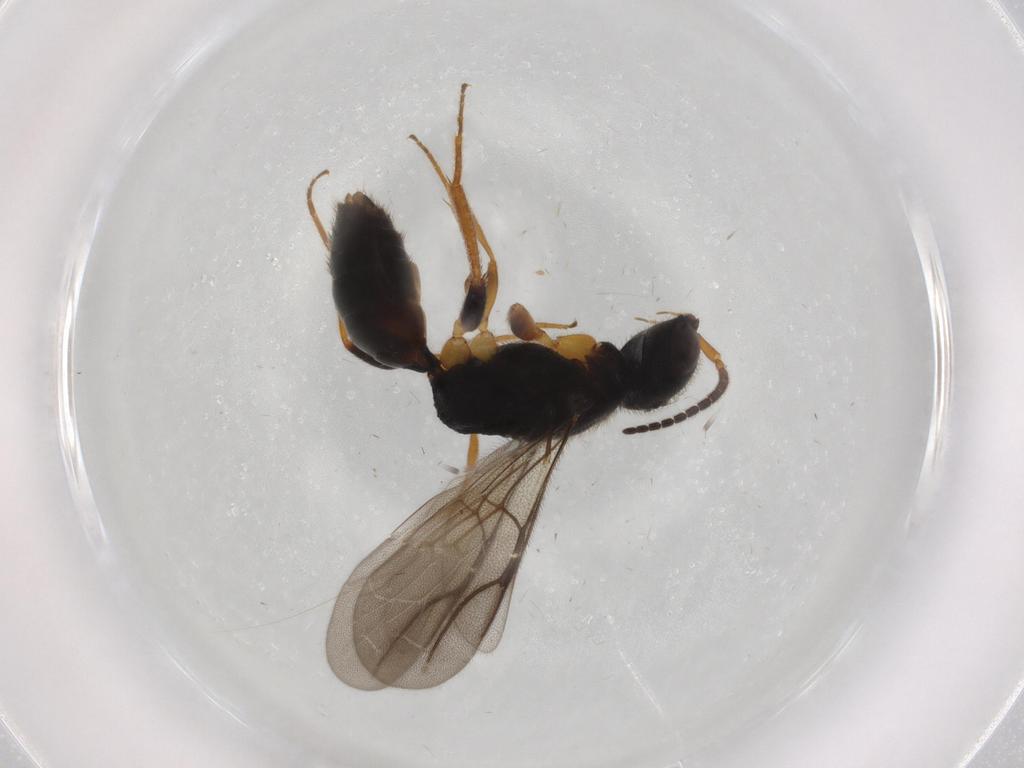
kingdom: Animalia
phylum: Arthropoda
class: Insecta
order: Hymenoptera
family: Bethylidae
